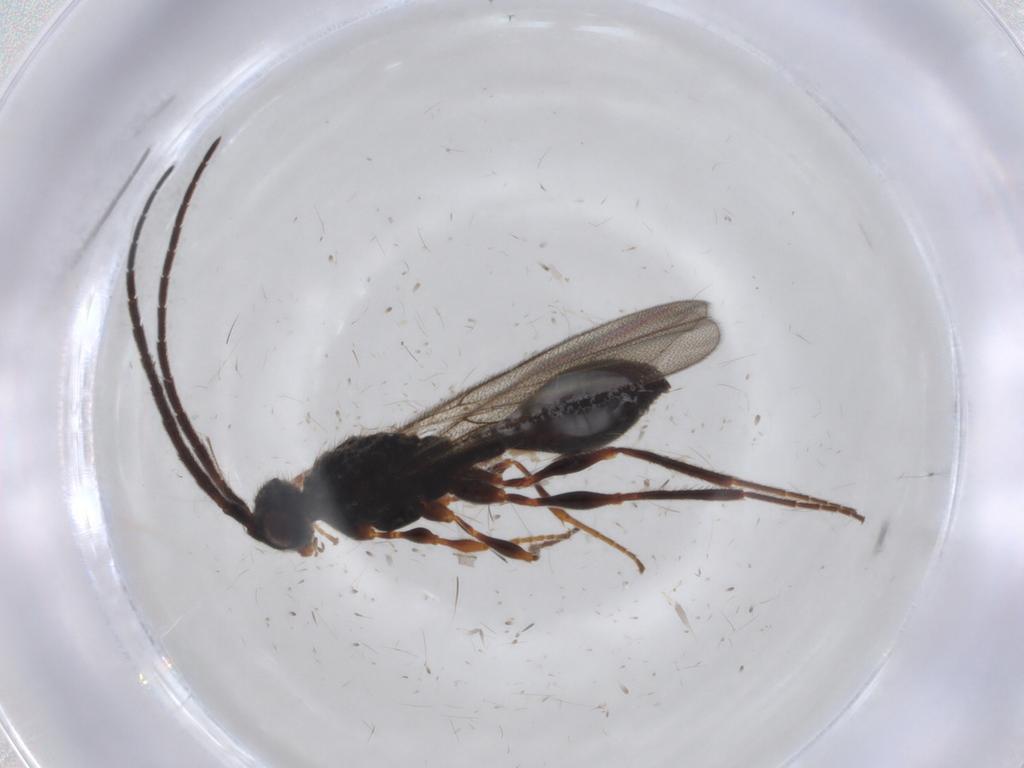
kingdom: Animalia
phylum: Arthropoda
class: Insecta
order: Hymenoptera
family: Scelionidae
